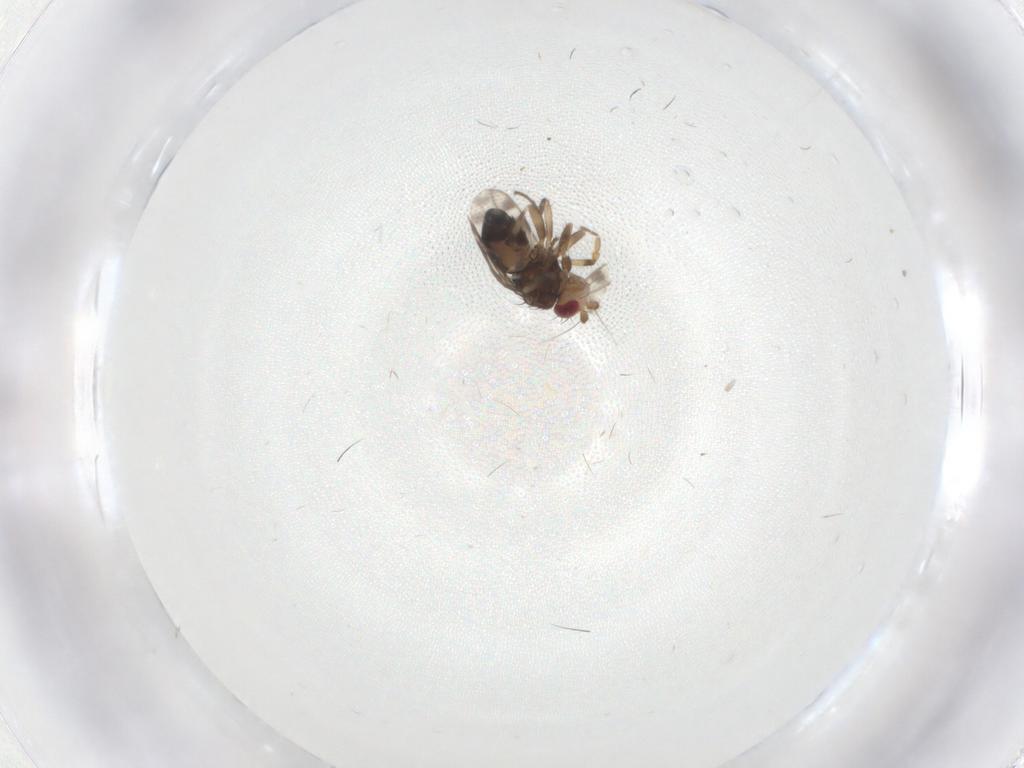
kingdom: Animalia
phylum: Arthropoda
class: Insecta
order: Diptera
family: Sphaeroceridae
